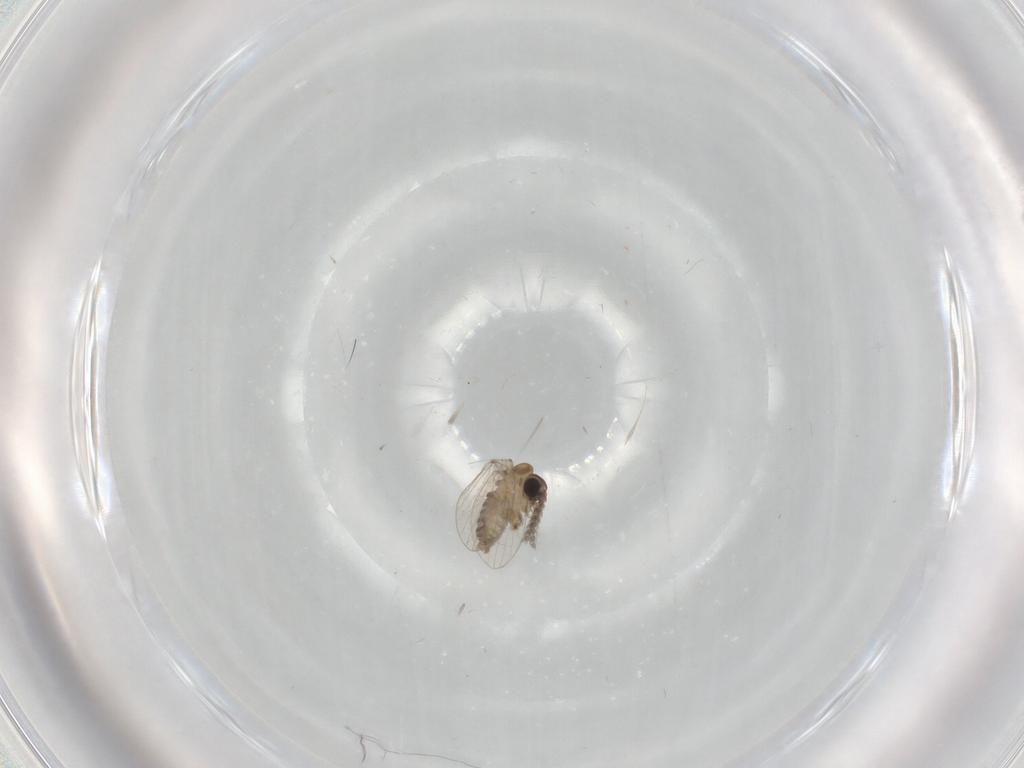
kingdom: Animalia
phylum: Arthropoda
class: Insecta
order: Diptera
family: Psychodidae
